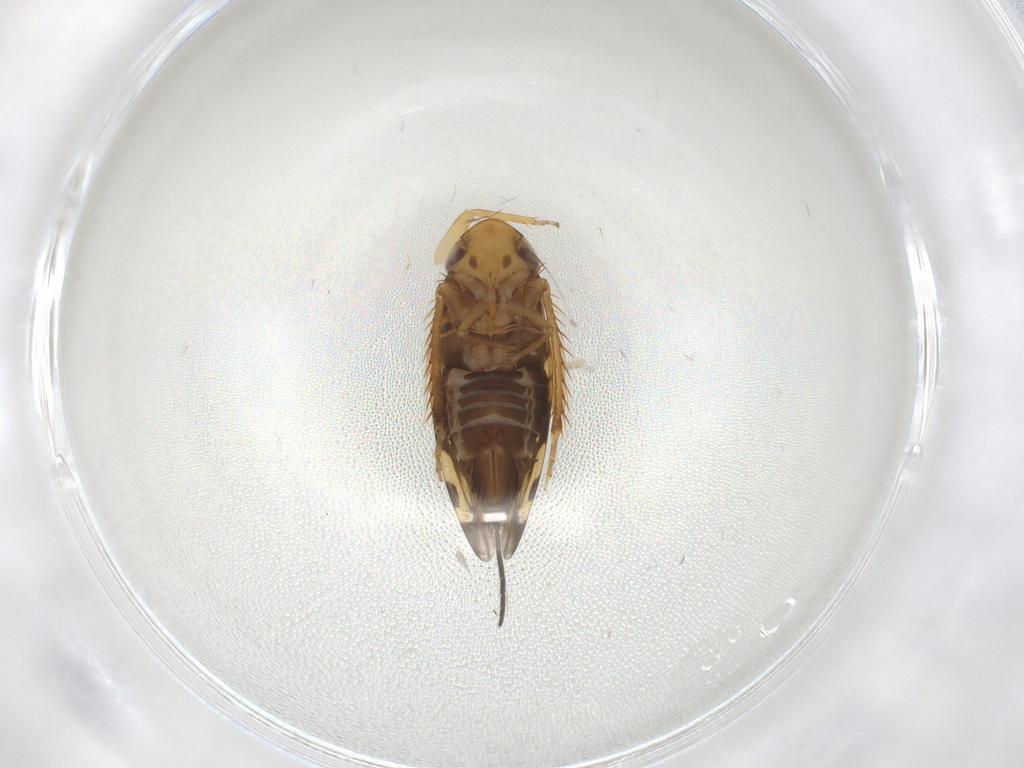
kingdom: Animalia
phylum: Arthropoda
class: Insecta
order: Hemiptera
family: Cicadellidae
